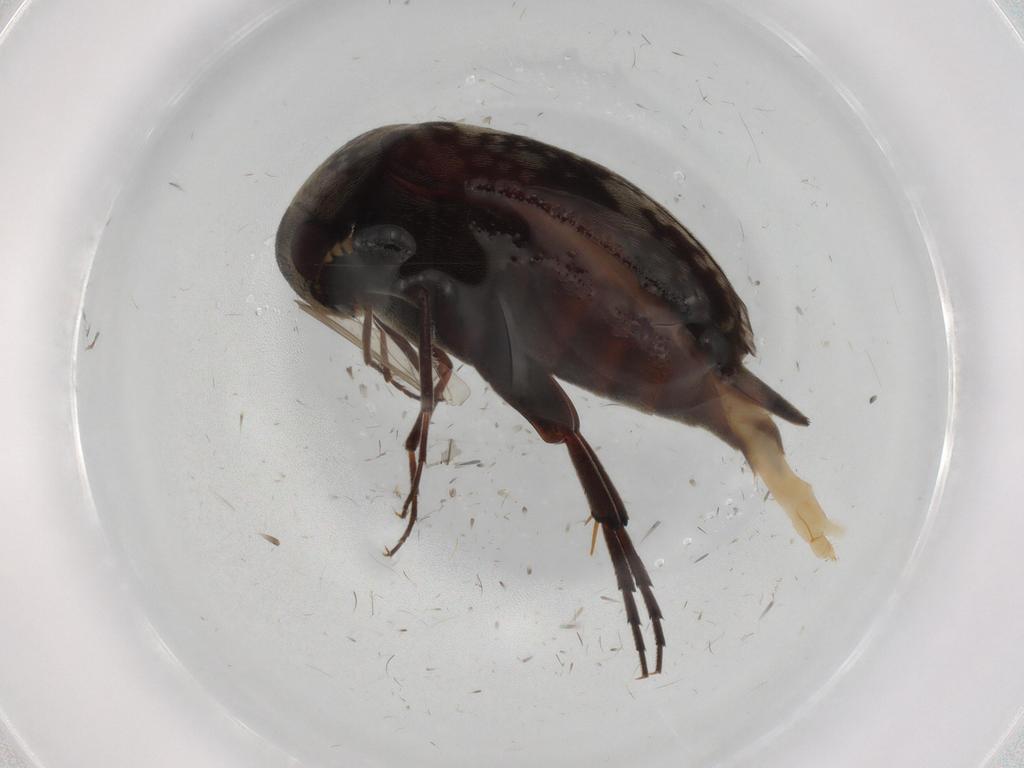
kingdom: Animalia
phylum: Arthropoda
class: Insecta
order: Coleoptera
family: Chrysomelidae
